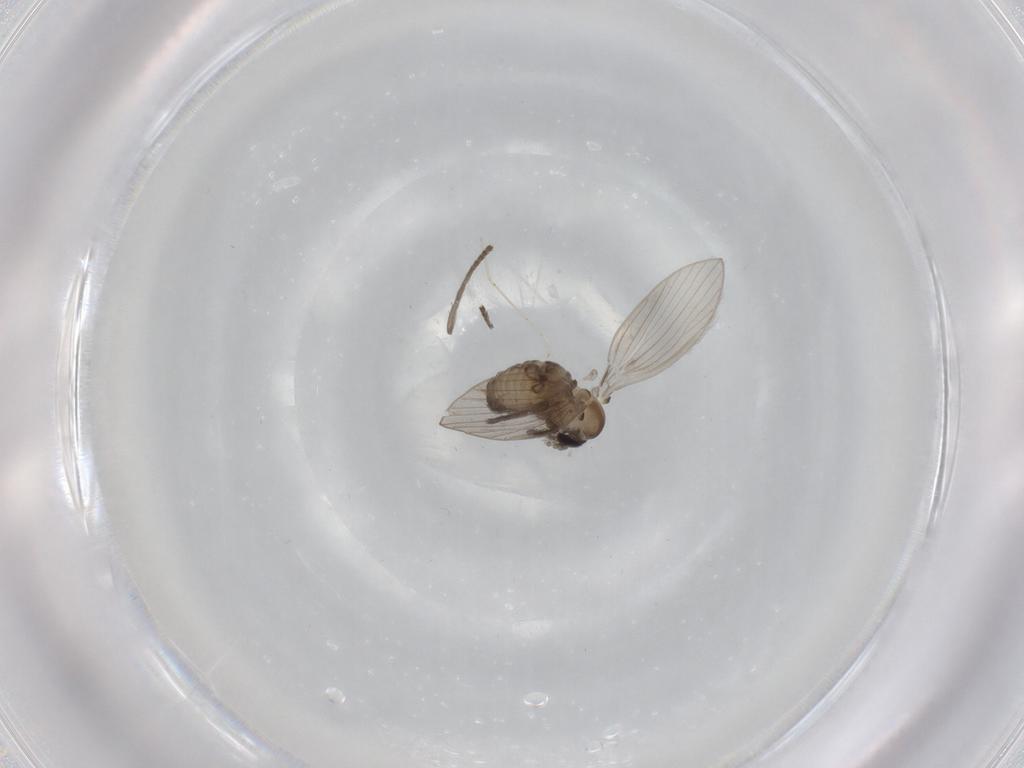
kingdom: Animalia
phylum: Arthropoda
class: Insecta
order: Diptera
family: Psychodidae
